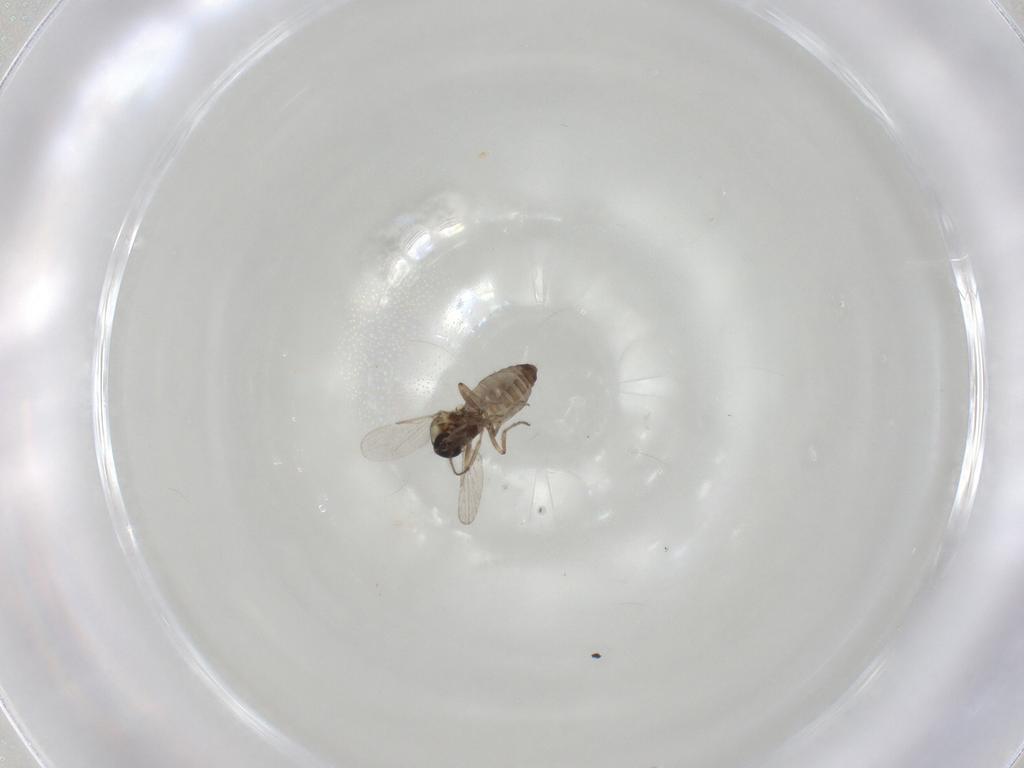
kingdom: Animalia
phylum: Arthropoda
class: Insecta
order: Diptera
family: Ceratopogonidae
